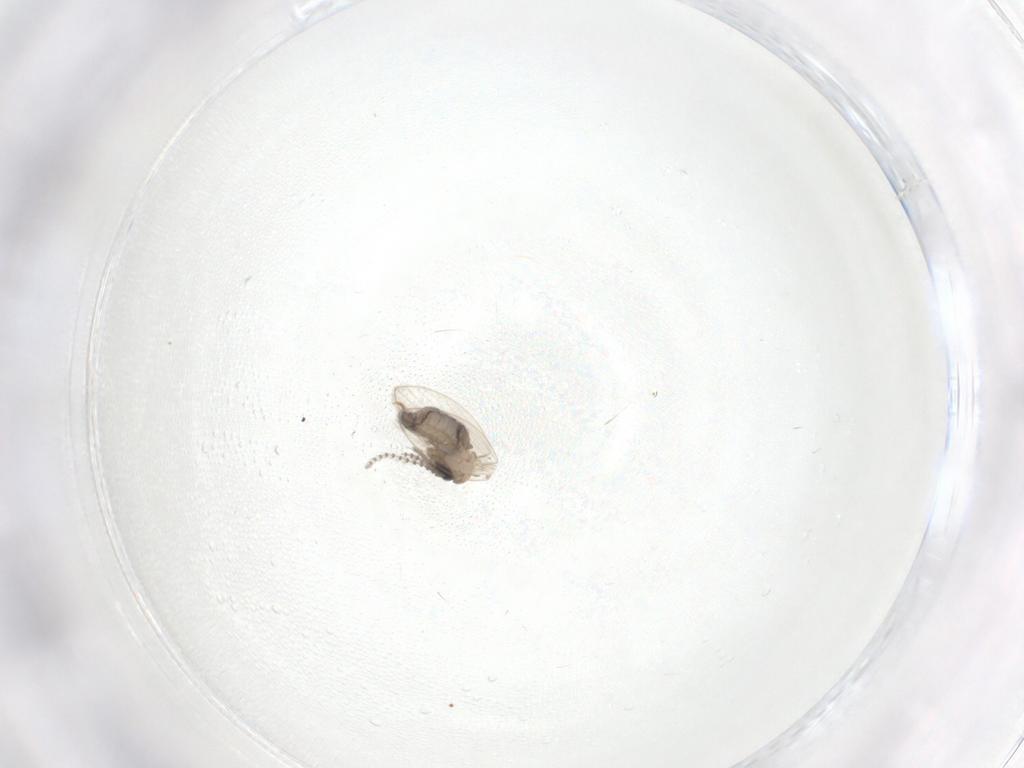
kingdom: Animalia
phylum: Arthropoda
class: Insecta
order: Diptera
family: Psychodidae
